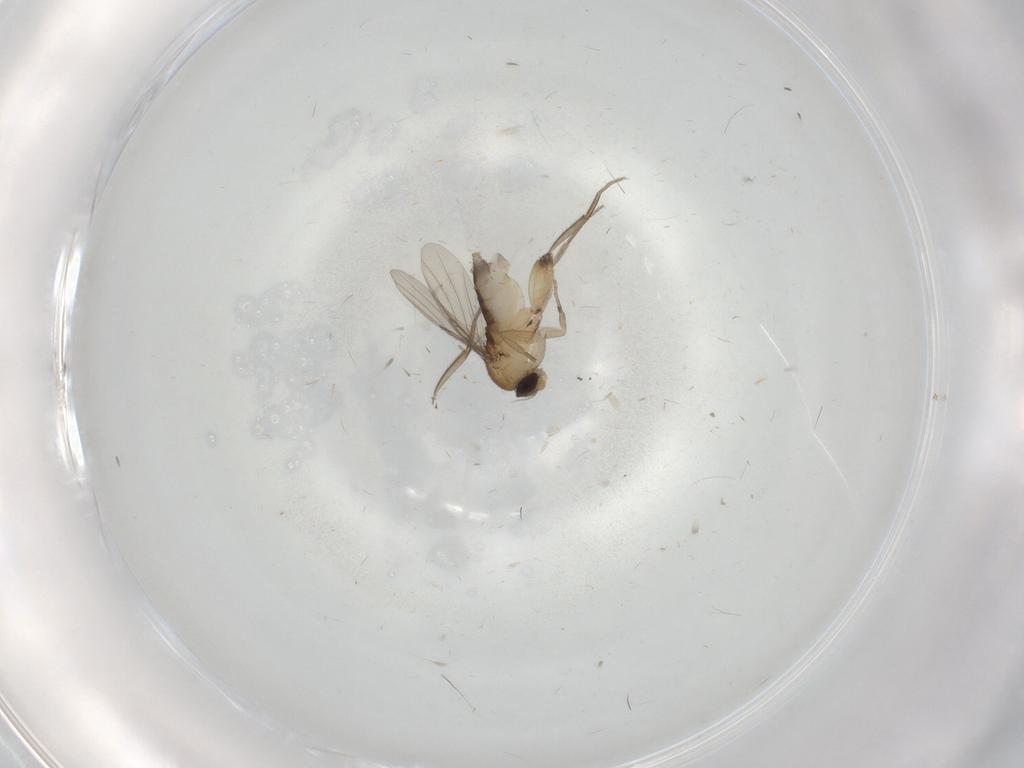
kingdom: Animalia
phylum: Arthropoda
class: Insecta
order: Diptera
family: Phoridae
